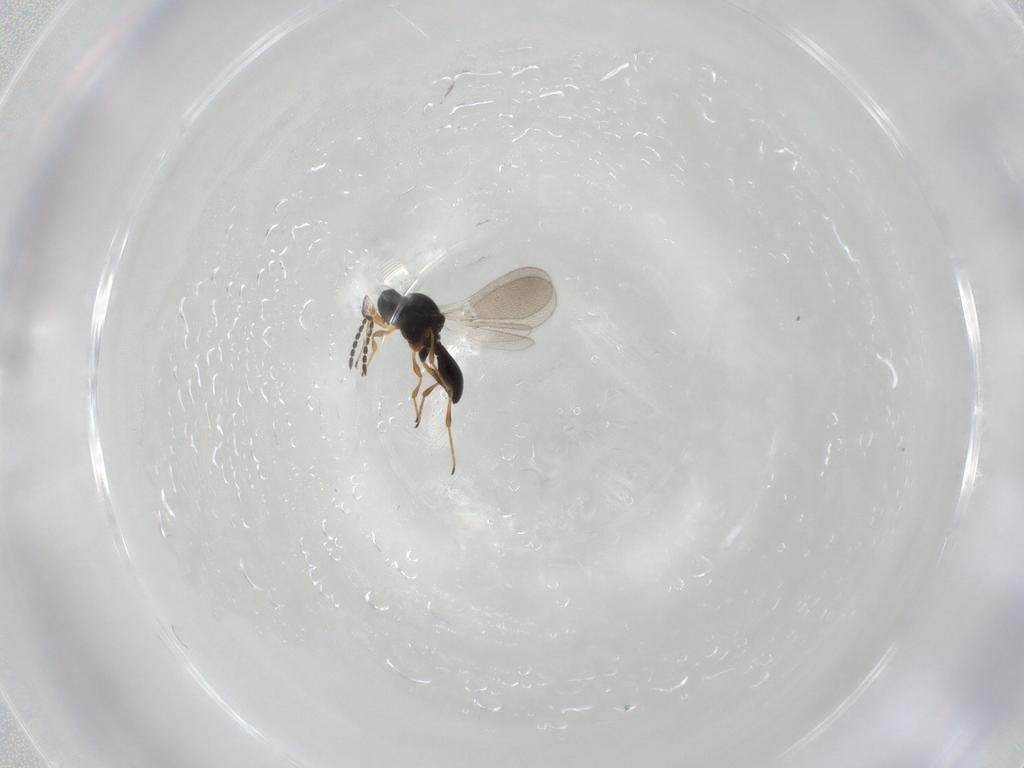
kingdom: Animalia
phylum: Arthropoda
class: Insecta
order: Hymenoptera
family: Platygastridae
